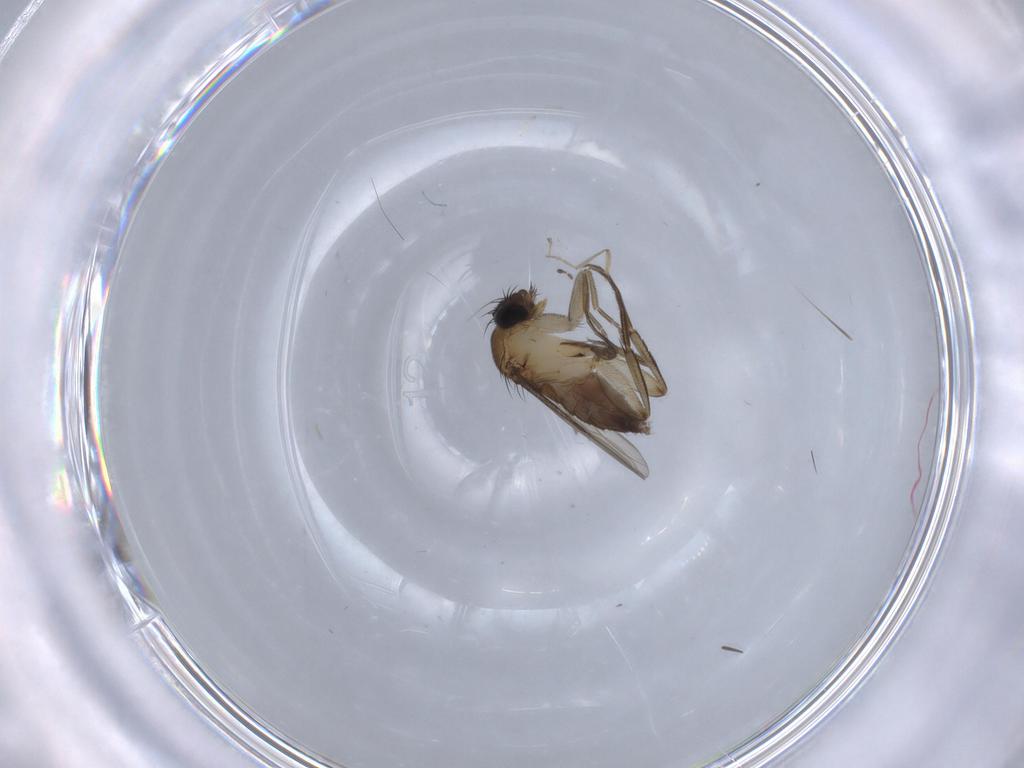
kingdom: Animalia
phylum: Arthropoda
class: Insecta
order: Diptera
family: Phoridae
